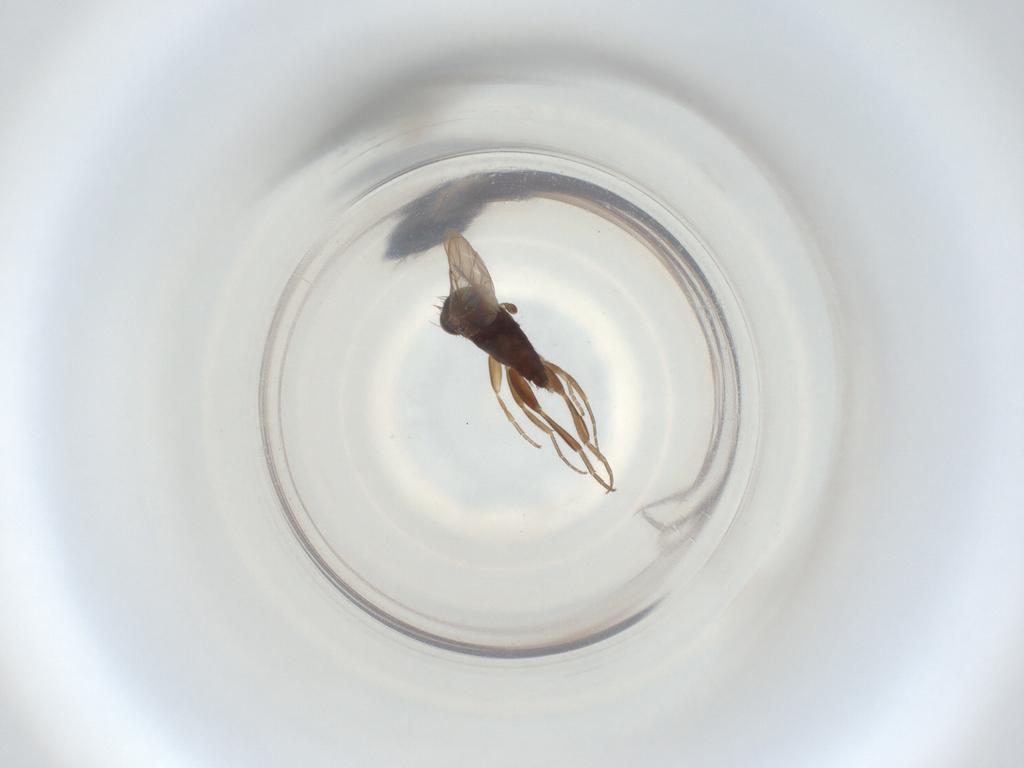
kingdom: Animalia
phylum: Arthropoda
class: Insecta
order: Diptera
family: Phoridae
